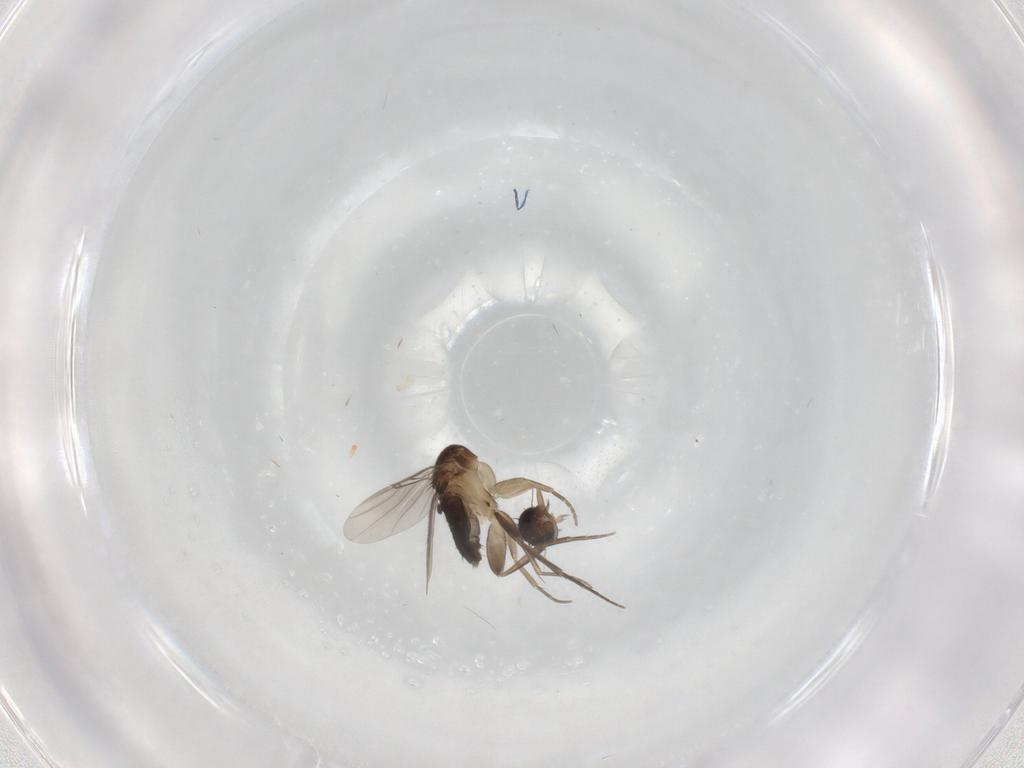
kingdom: Animalia
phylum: Arthropoda
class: Insecta
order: Diptera
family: Phoridae
